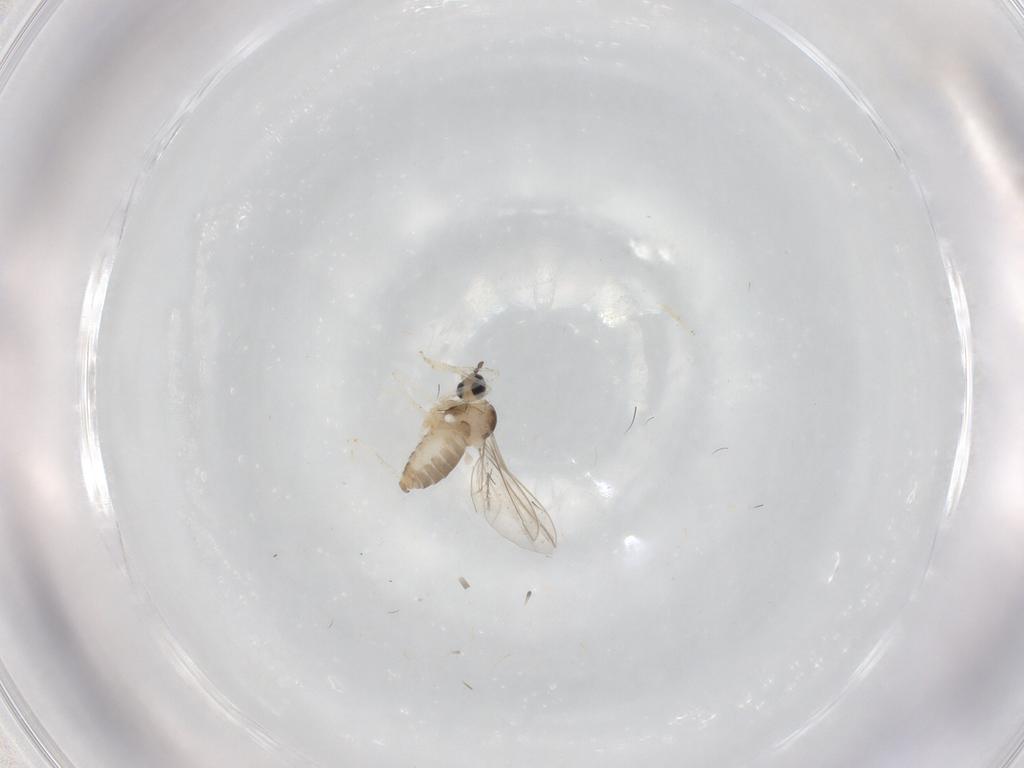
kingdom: Animalia
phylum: Arthropoda
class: Insecta
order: Diptera
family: Cecidomyiidae
